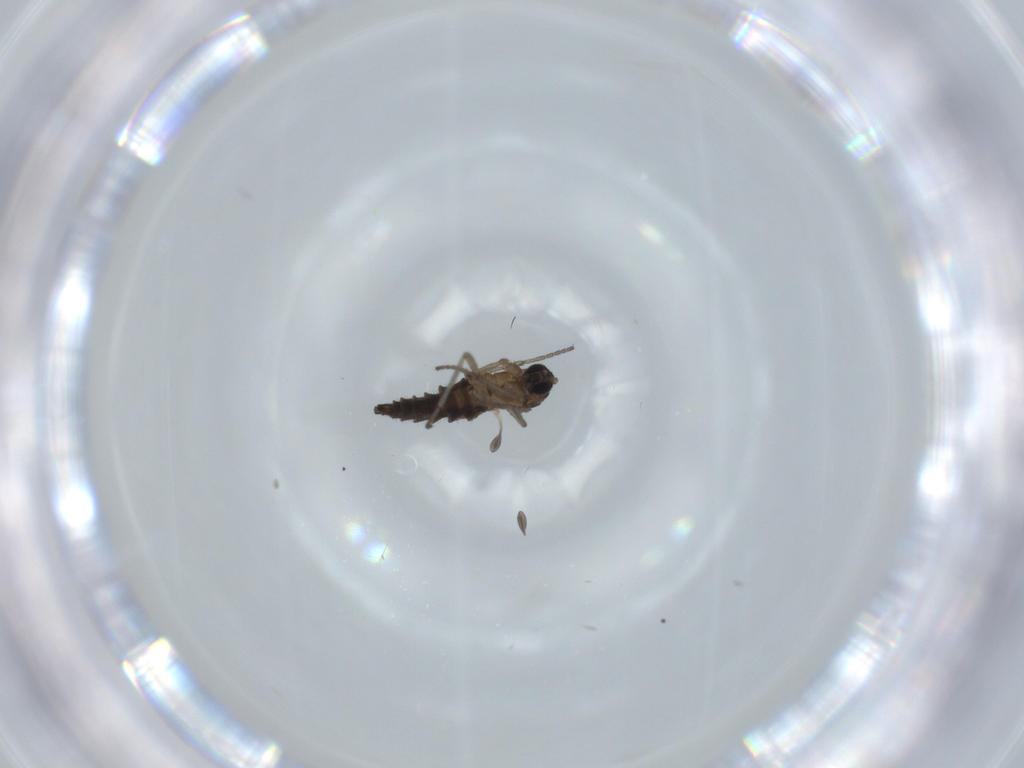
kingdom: Animalia
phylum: Arthropoda
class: Insecta
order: Diptera
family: Sciaridae
